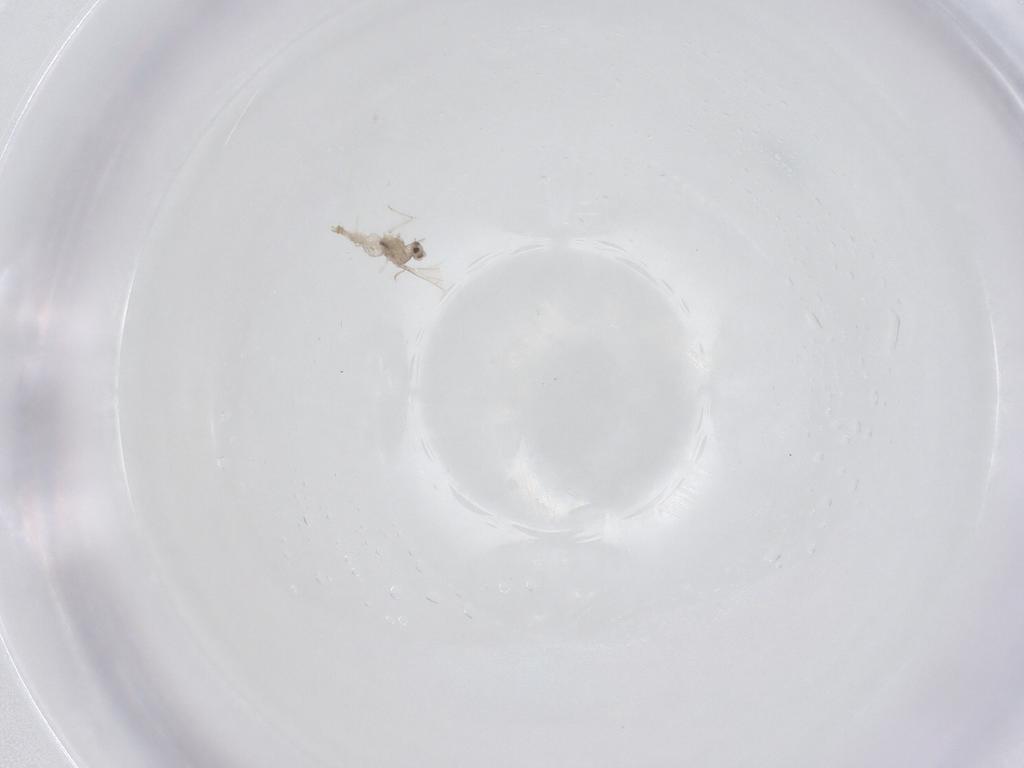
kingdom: Animalia
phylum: Arthropoda
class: Insecta
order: Diptera
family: Cecidomyiidae
